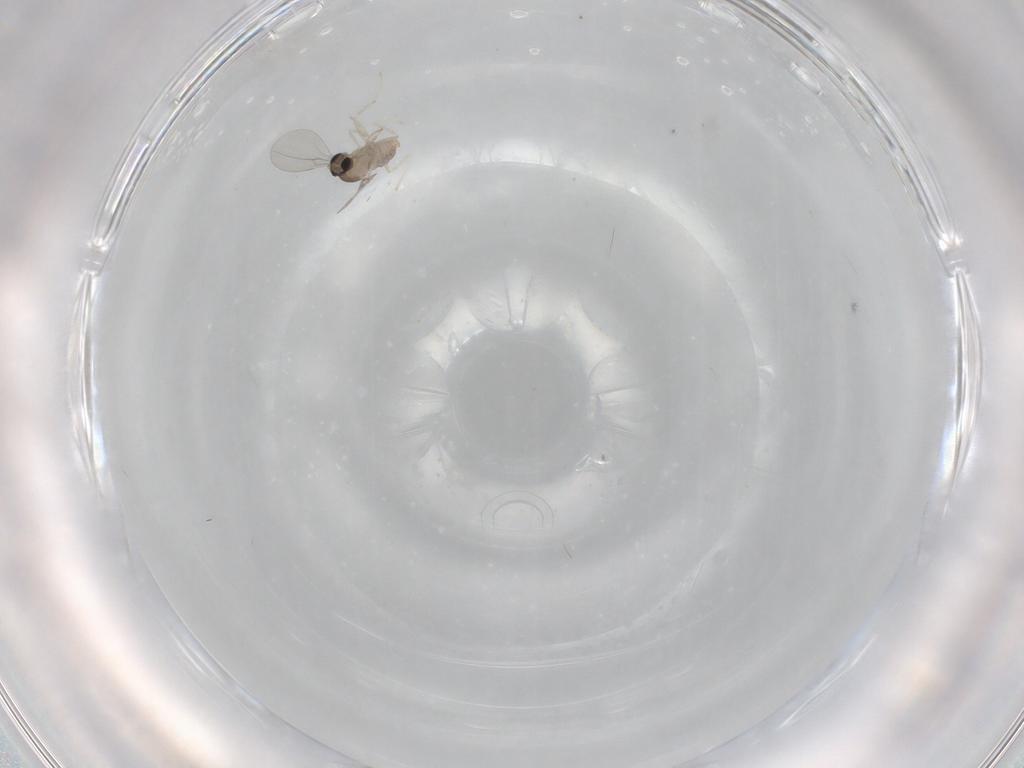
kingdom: Animalia
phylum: Arthropoda
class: Insecta
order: Diptera
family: Cecidomyiidae
